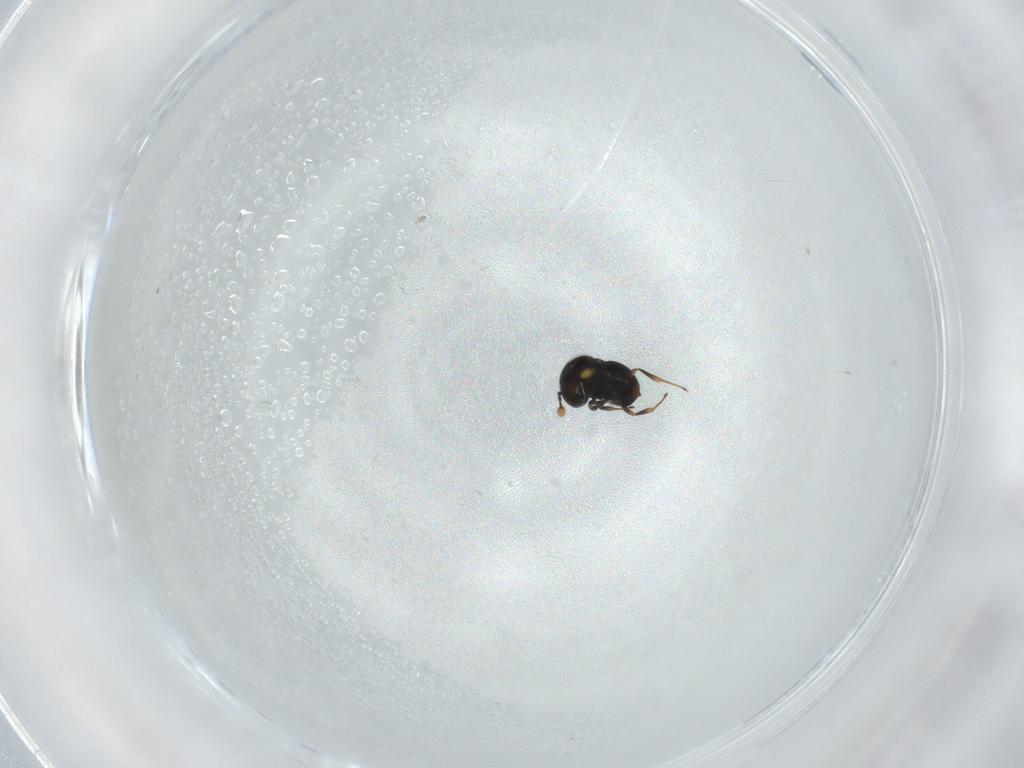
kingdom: Animalia
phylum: Arthropoda
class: Insecta
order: Hymenoptera
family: Scelionidae
